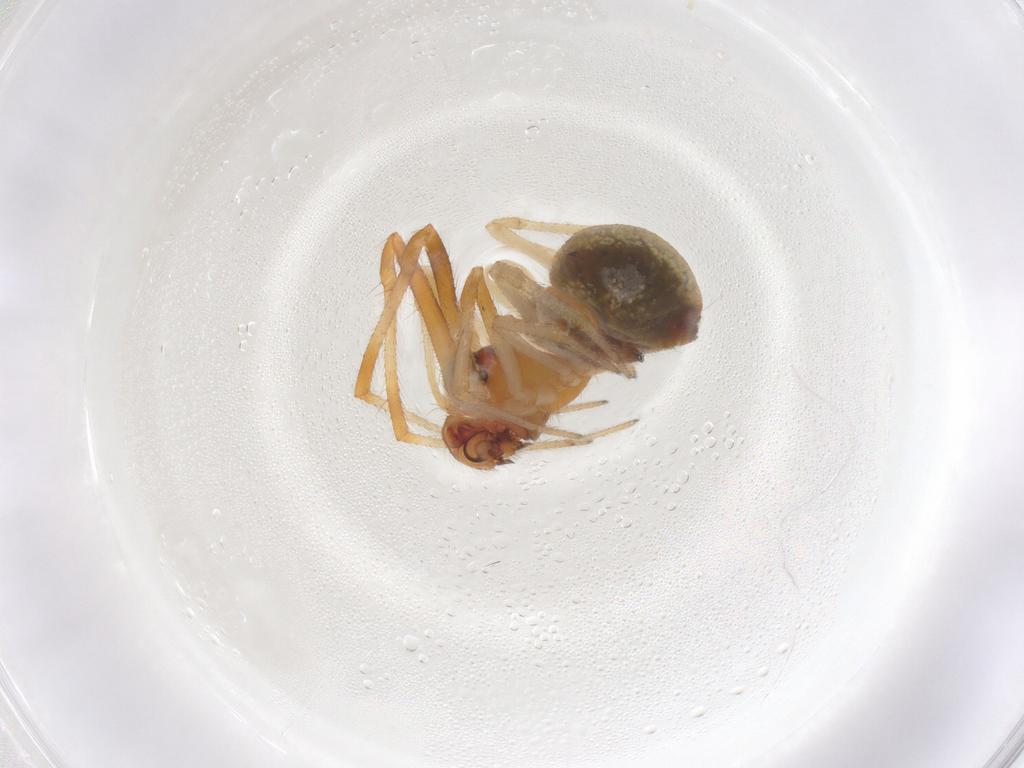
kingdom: Animalia
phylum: Arthropoda
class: Arachnida
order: Araneae
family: Theridiidae
